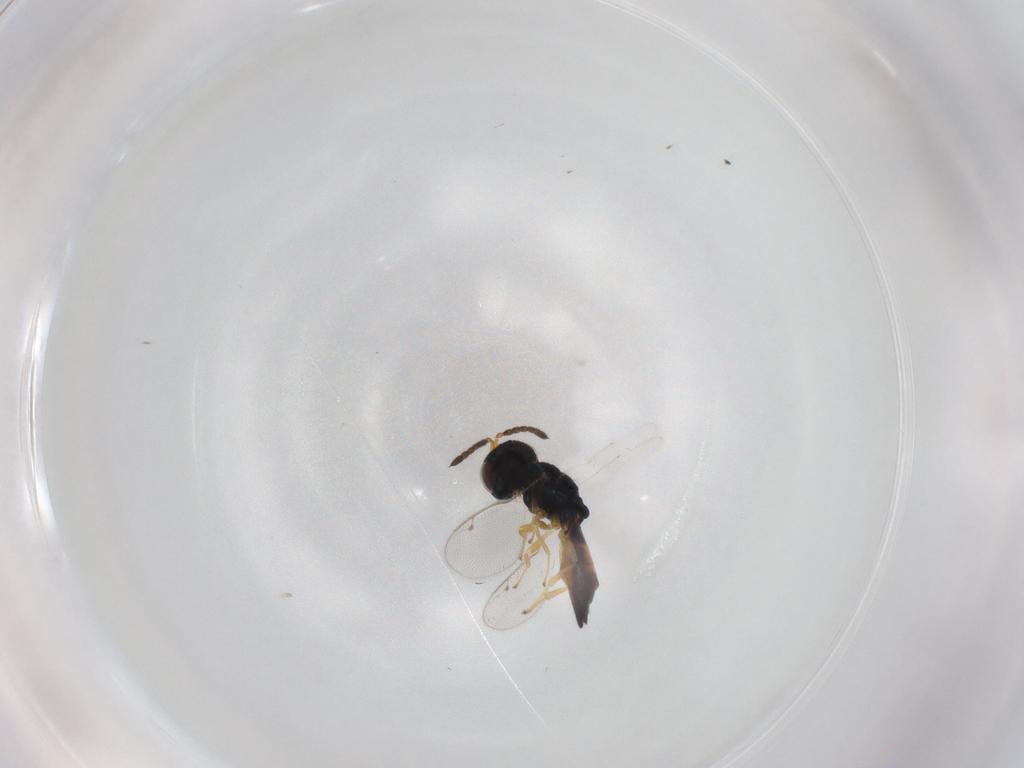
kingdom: Animalia
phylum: Arthropoda
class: Insecta
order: Hymenoptera
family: Pteromalidae
